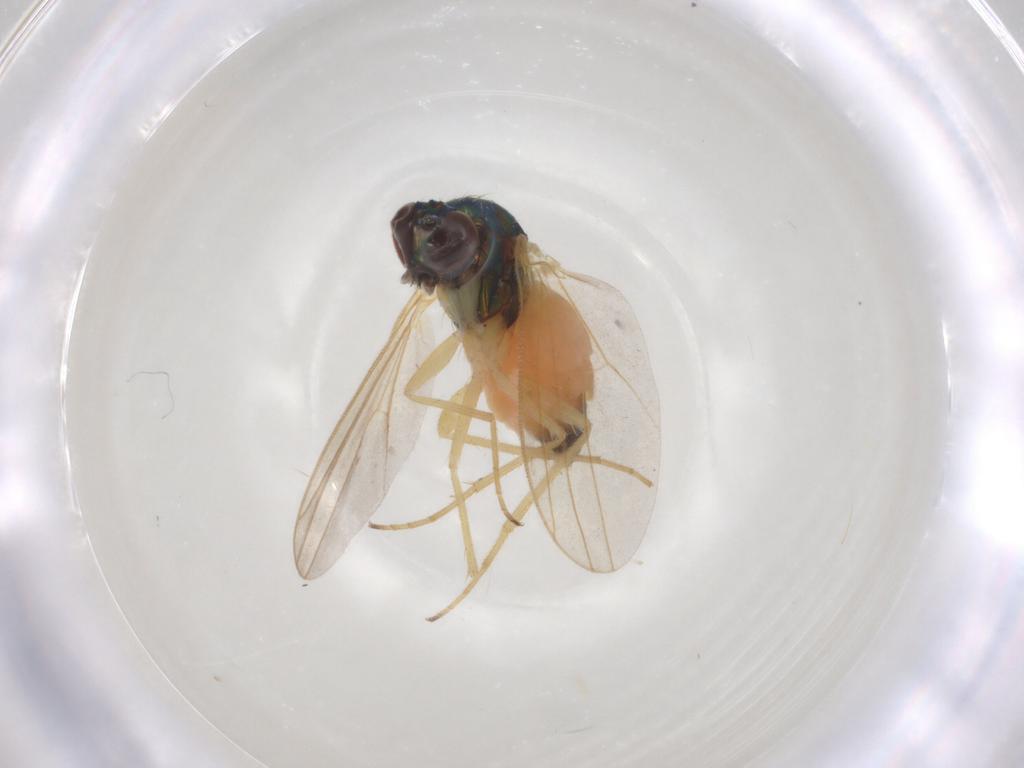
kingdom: Animalia
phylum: Arthropoda
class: Insecta
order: Diptera
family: Dolichopodidae
